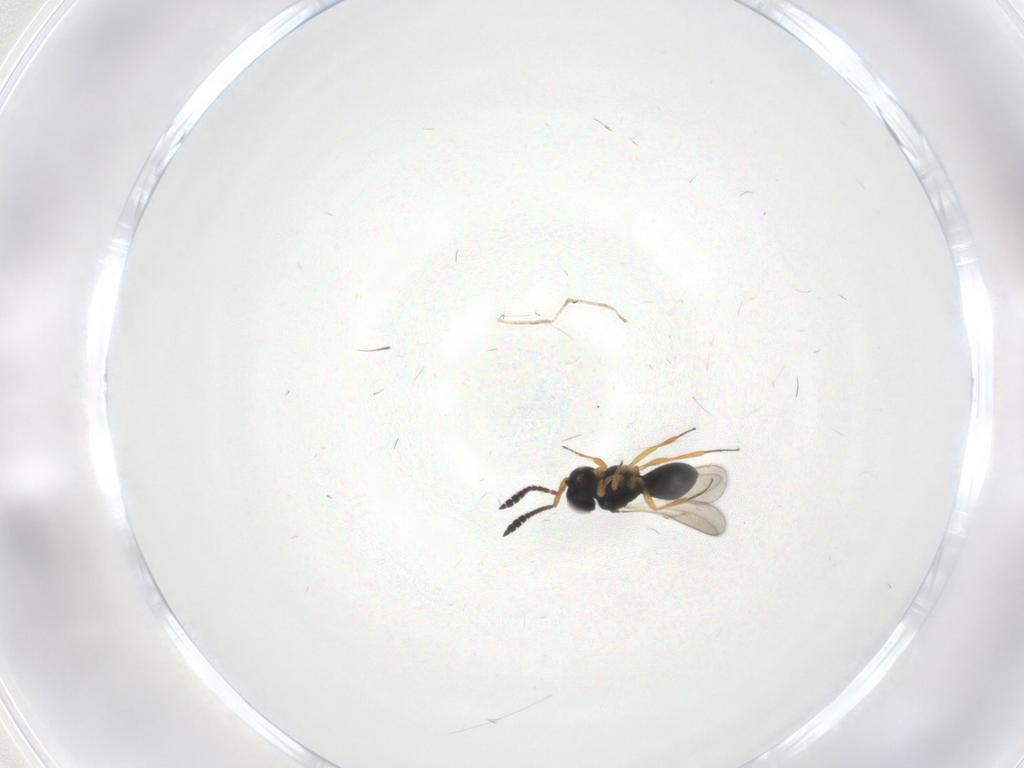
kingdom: Animalia
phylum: Arthropoda
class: Insecta
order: Hymenoptera
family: Scelionidae
